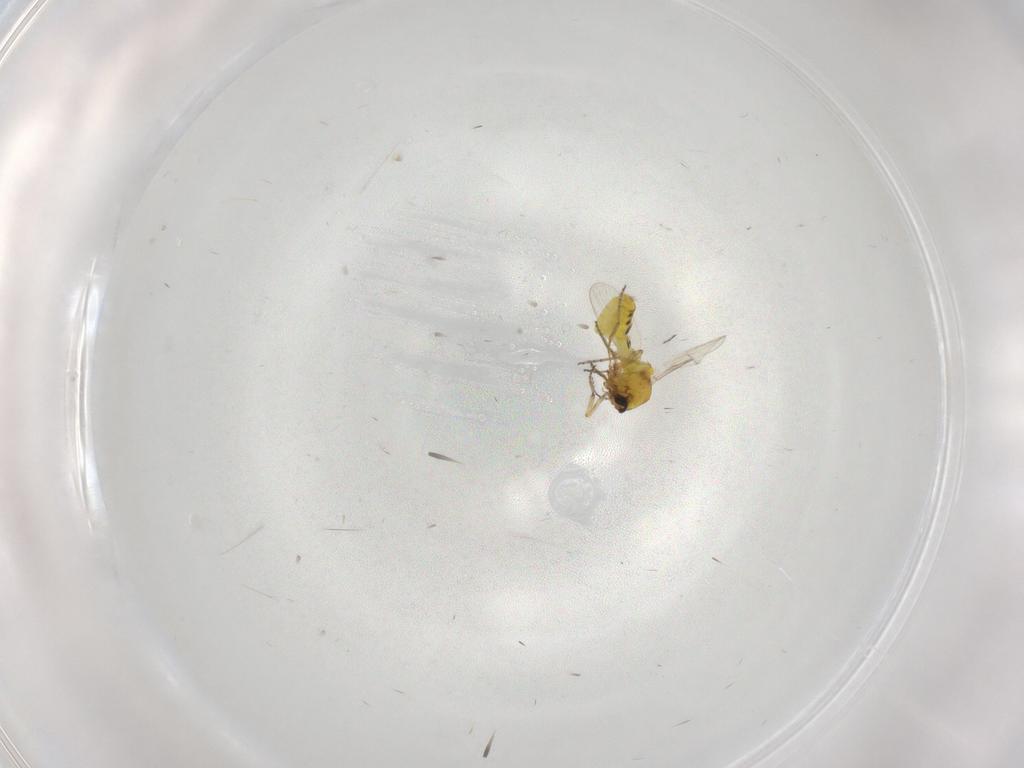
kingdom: Animalia
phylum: Arthropoda
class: Insecta
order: Diptera
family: Ceratopogonidae
